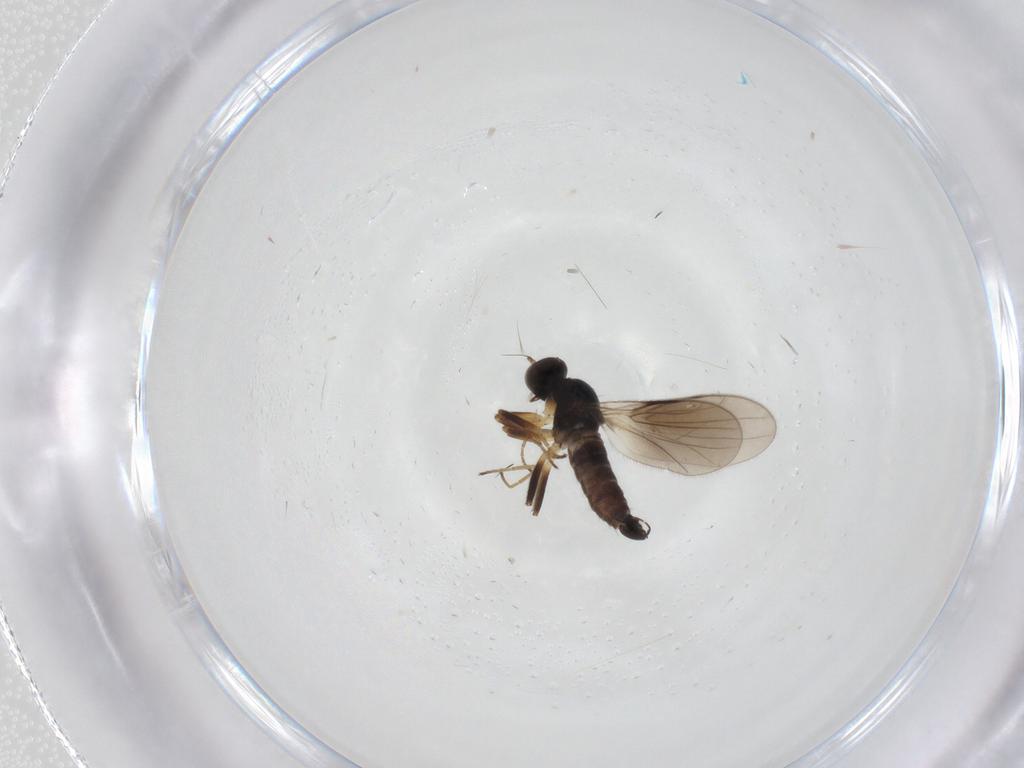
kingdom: Animalia
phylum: Arthropoda
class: Insecta
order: Diptera
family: Hybotidae
